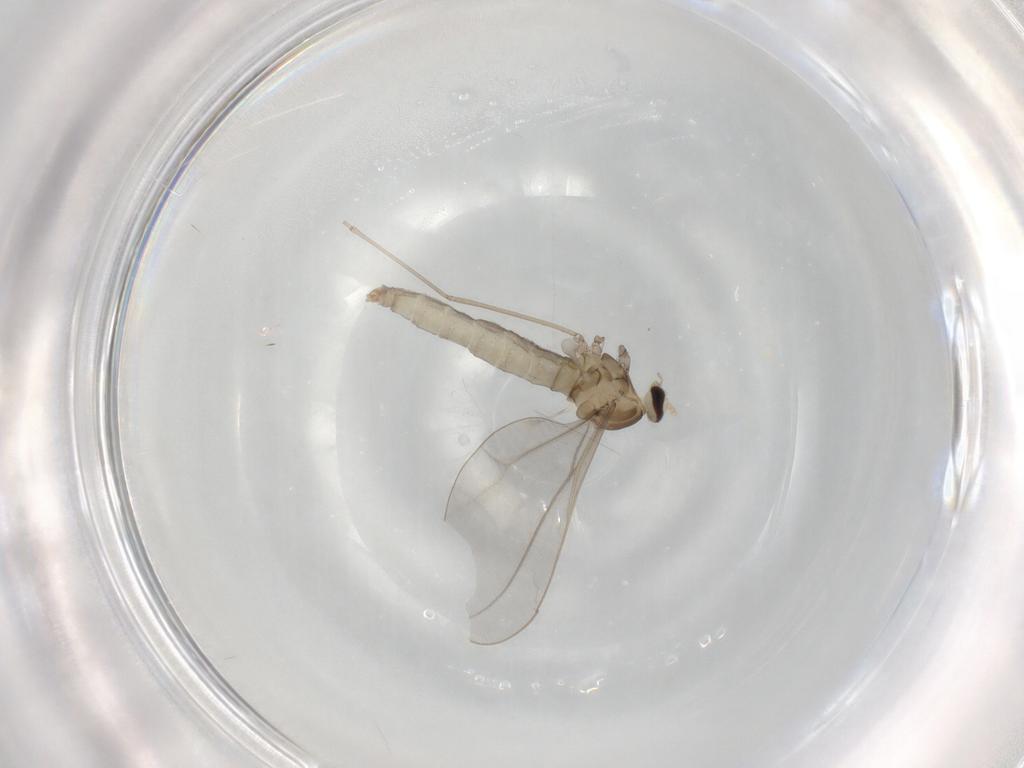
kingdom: Animalia
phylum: Arthropoda
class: Insecta
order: Diptera
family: Cecidomyiidae
